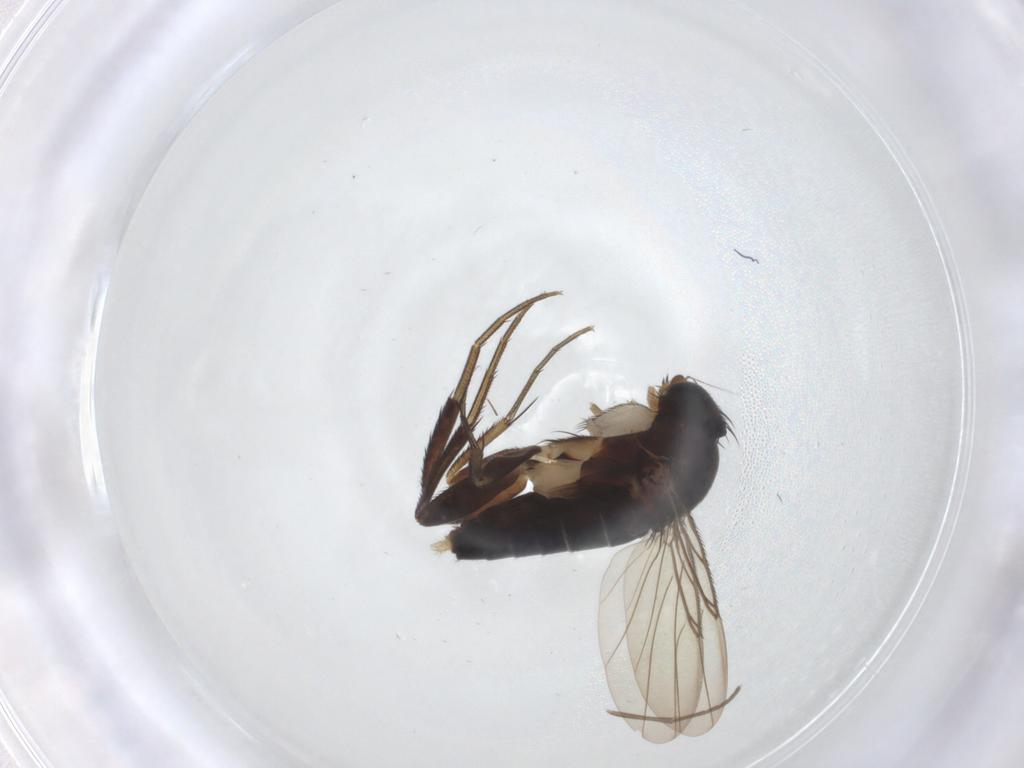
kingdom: Animalia
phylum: Arthropoda
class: Insecta
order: Diptera
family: Phoridae
